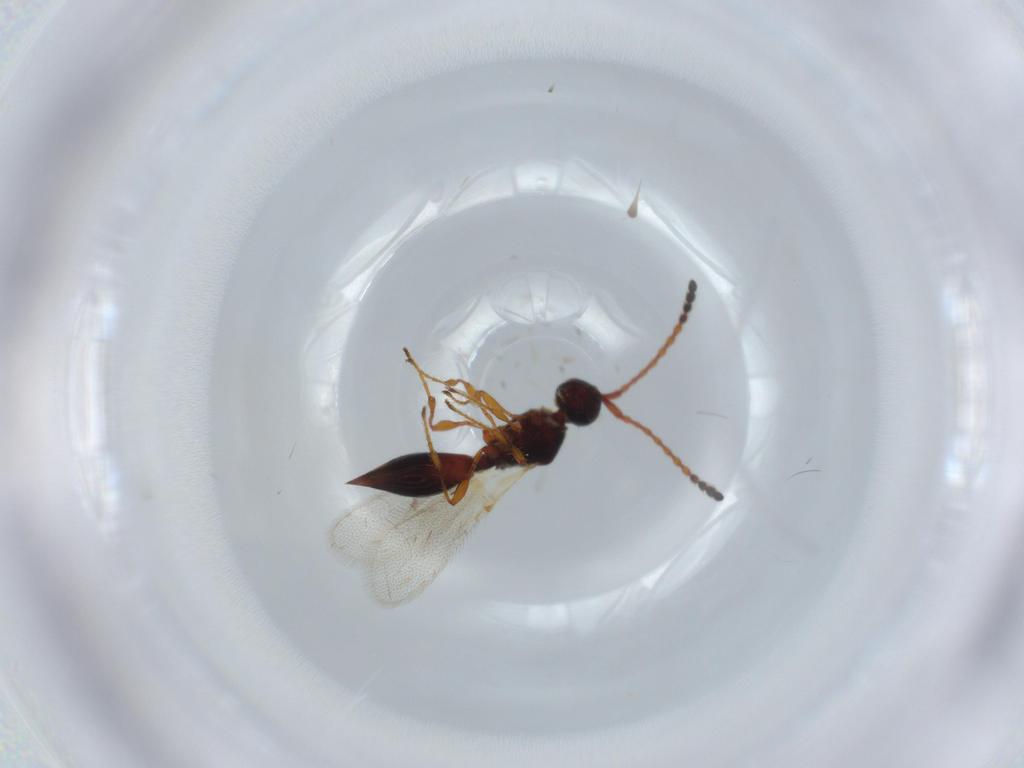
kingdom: Animalia
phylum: Arthropoda
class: Insecta
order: Hymenoptera
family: Diapriidae
